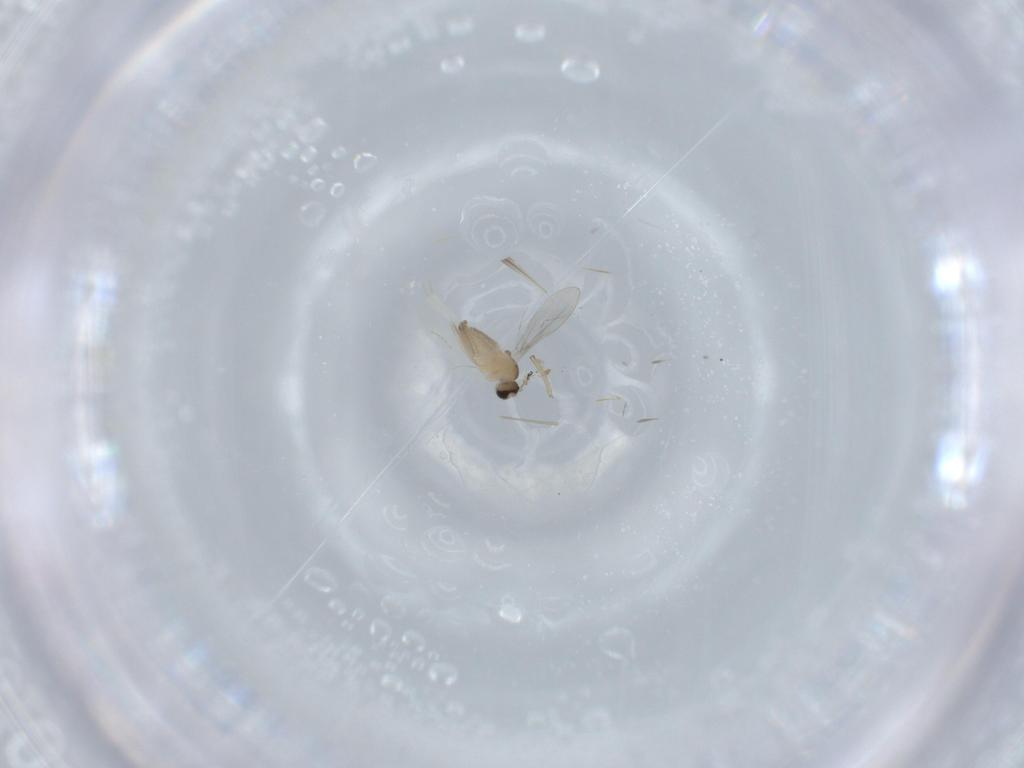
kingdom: Animalia
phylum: Arthropoda
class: Insecta
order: Diptera
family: Cecidomyiidae
